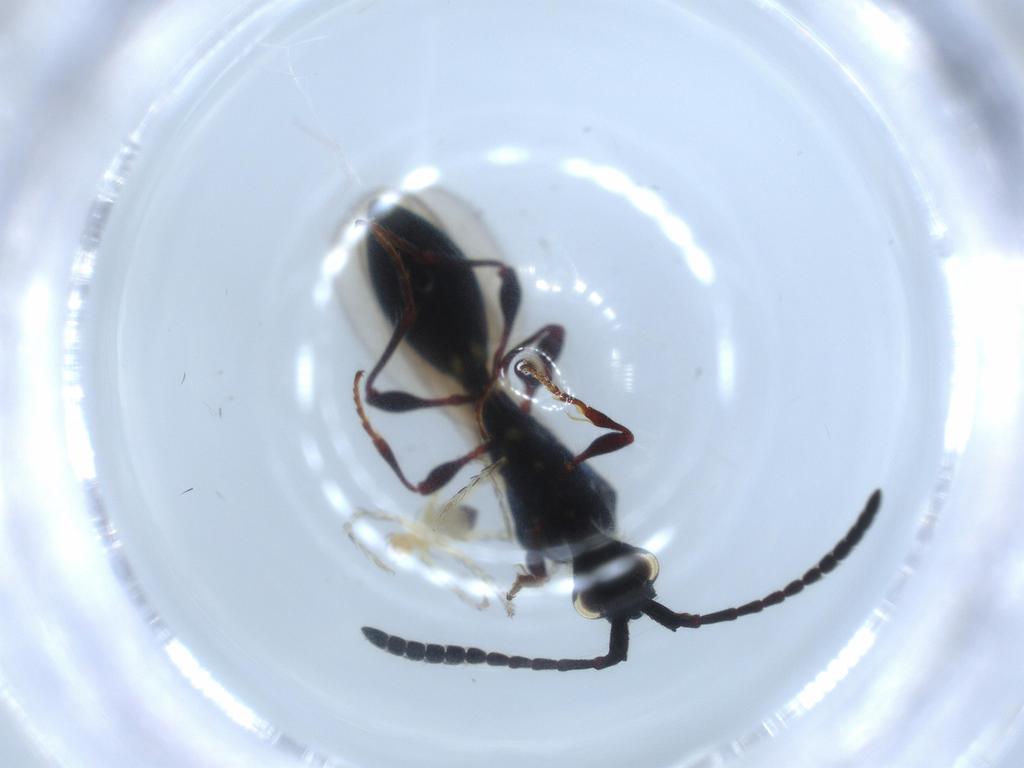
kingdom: Animalia
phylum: Arthropoda
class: Arachnida
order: Trombidiformes
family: Erythraeidae
